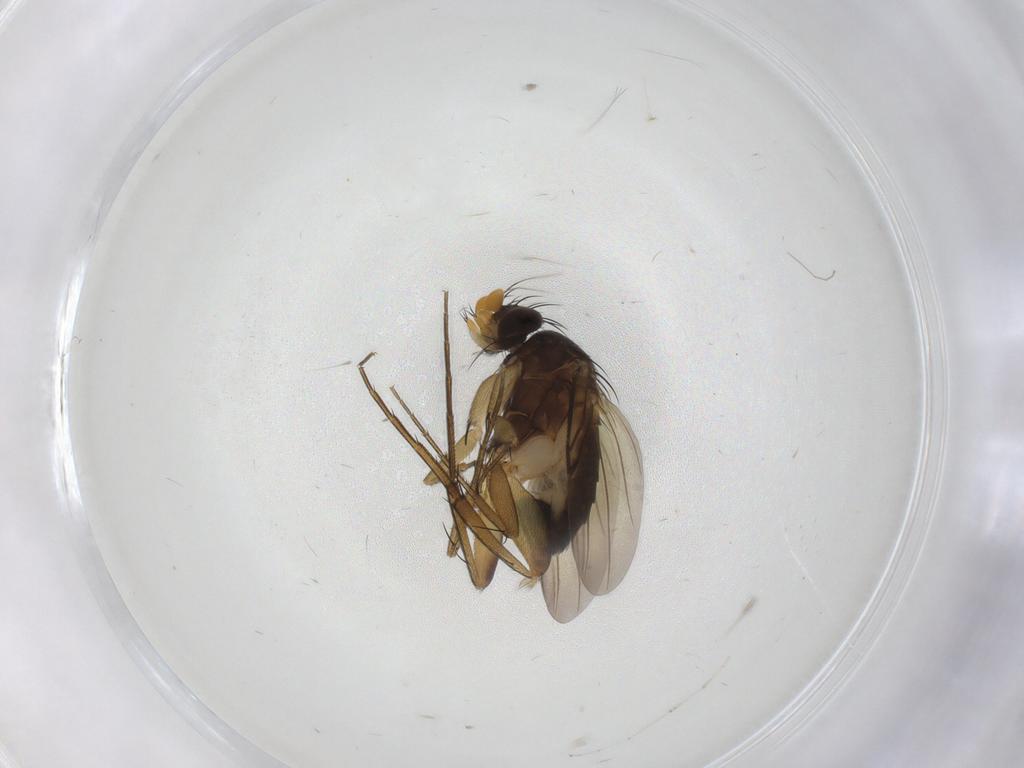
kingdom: Animalia
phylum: Arthropoda
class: Insecta
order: Diptera
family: Phoridae
